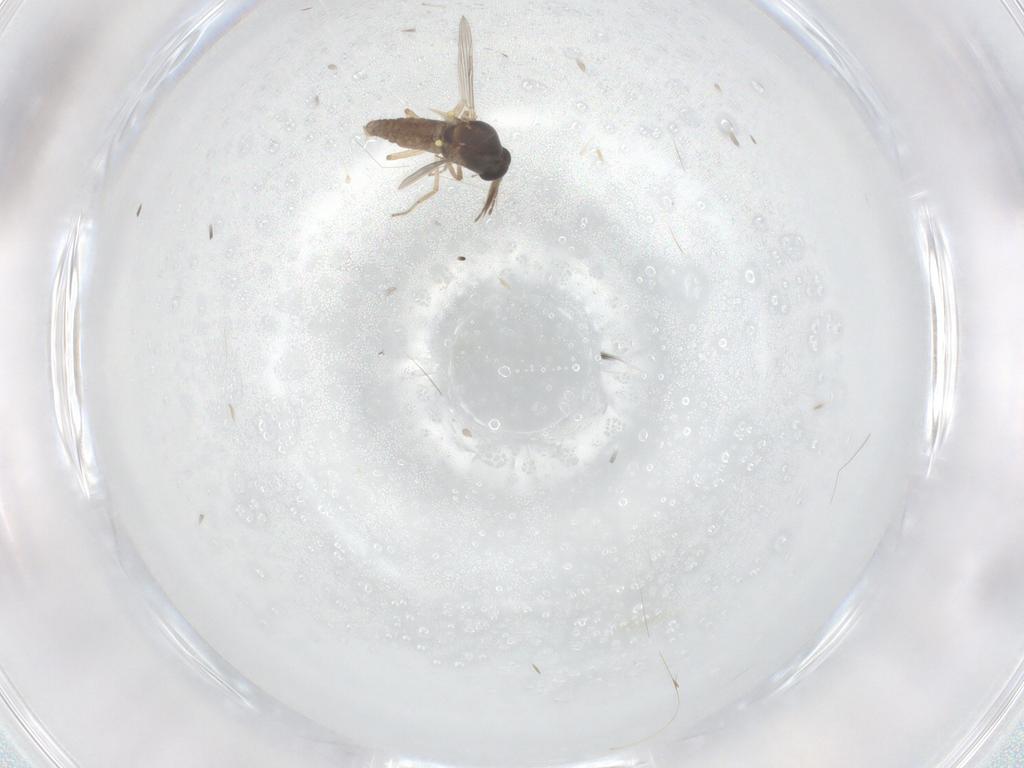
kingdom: Animalia
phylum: Arthropoda
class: Insecta
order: Diptera
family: Ceratopogonidae
